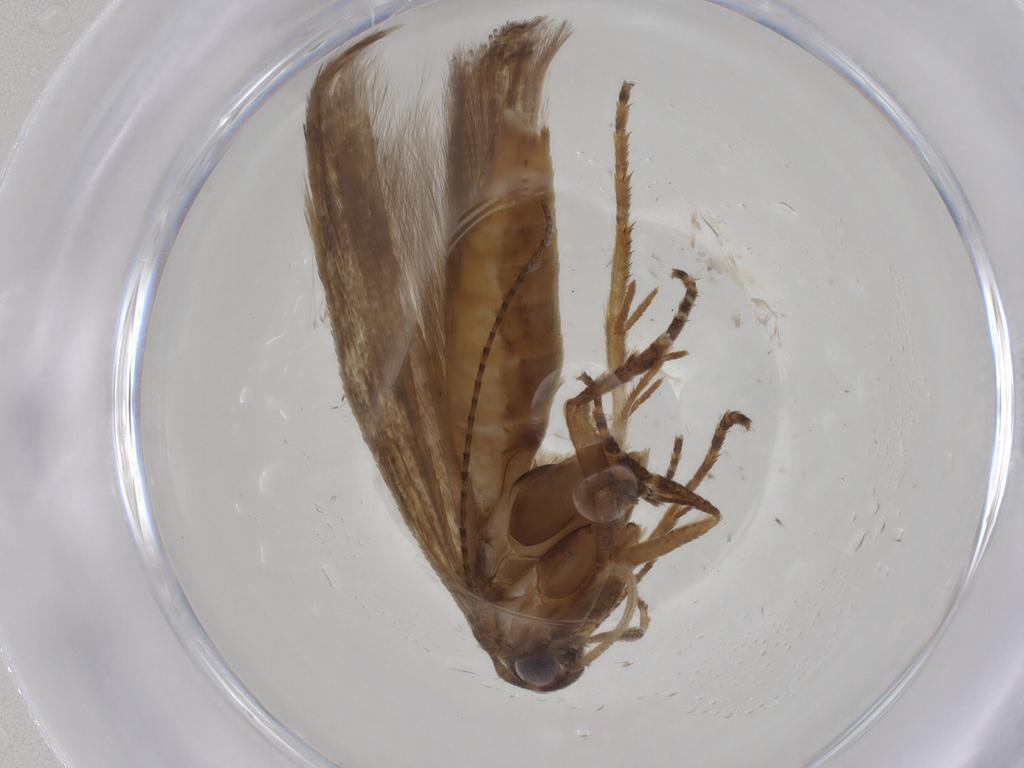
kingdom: Animalia
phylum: Arthropoda
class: Insecta
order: Lepidoptera
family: Gelechiidae
